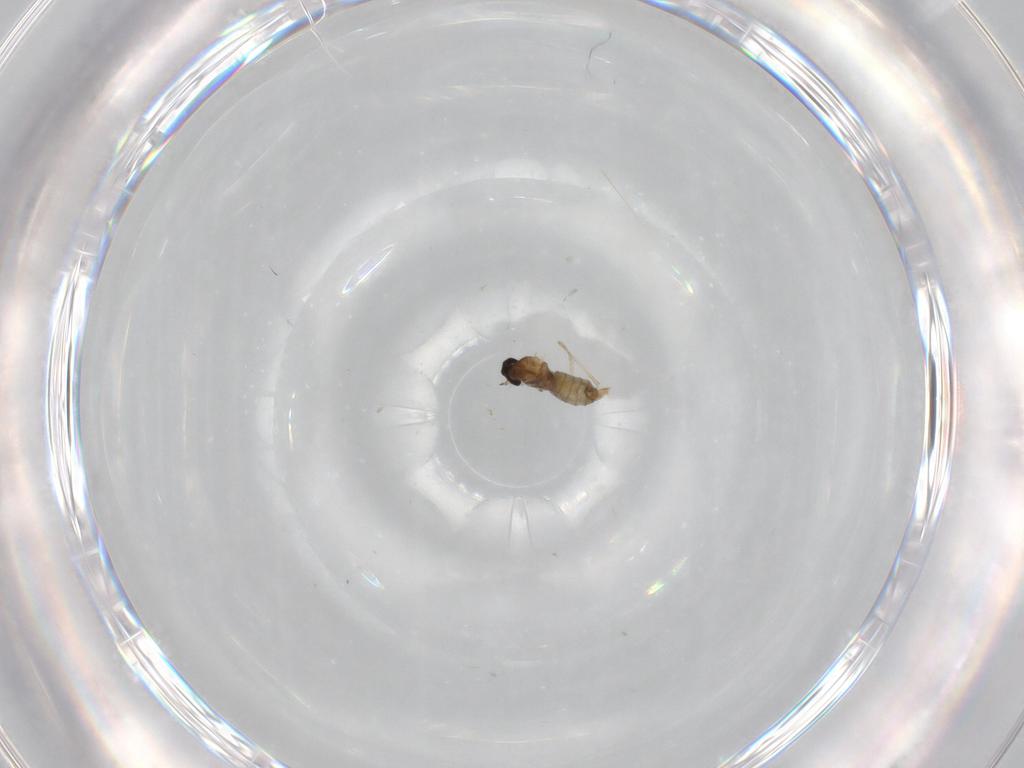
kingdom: Animalia
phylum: Arthropoda
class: Insecta
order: Diptera
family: Cecidomyiidae
